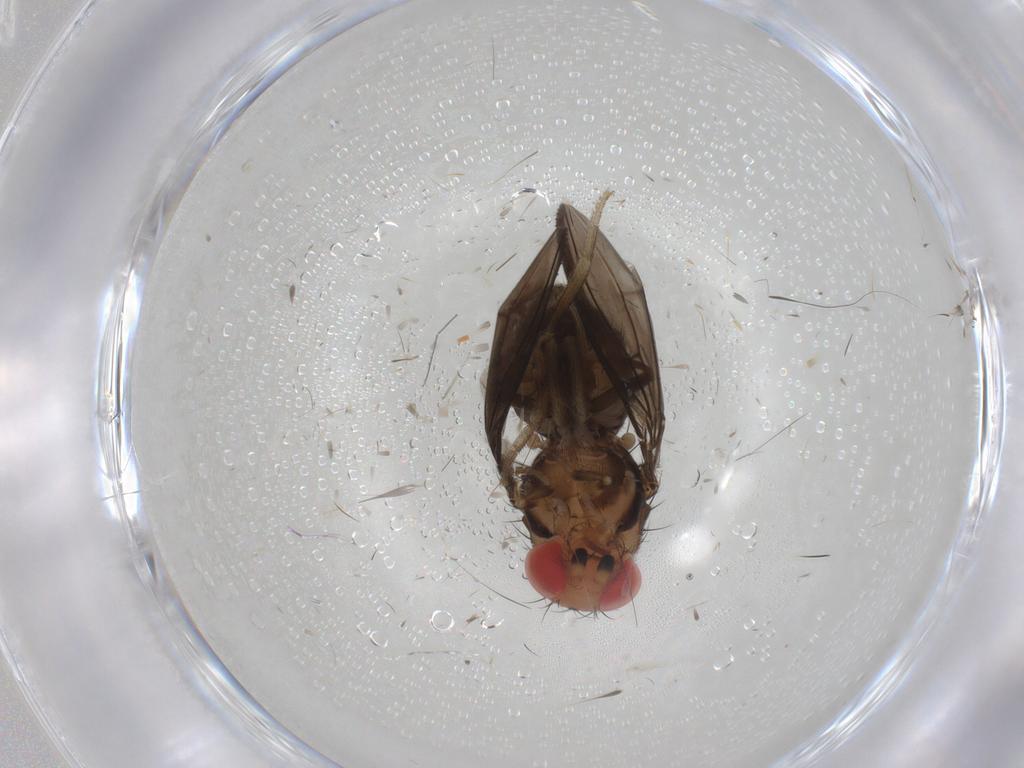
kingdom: Animalia
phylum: Arthropoda
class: Insecta
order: Diptera
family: Drosophilidae
